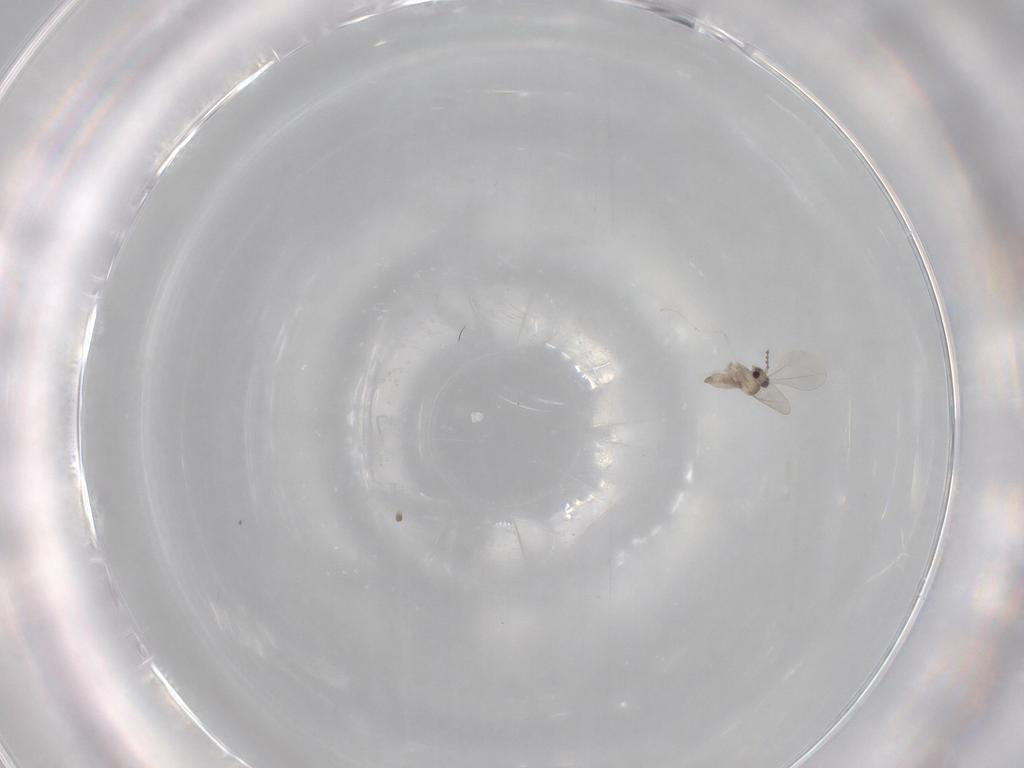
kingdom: Animalia
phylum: Arthropoda
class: Insecta
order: Diptera
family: Cecidomyiidae
